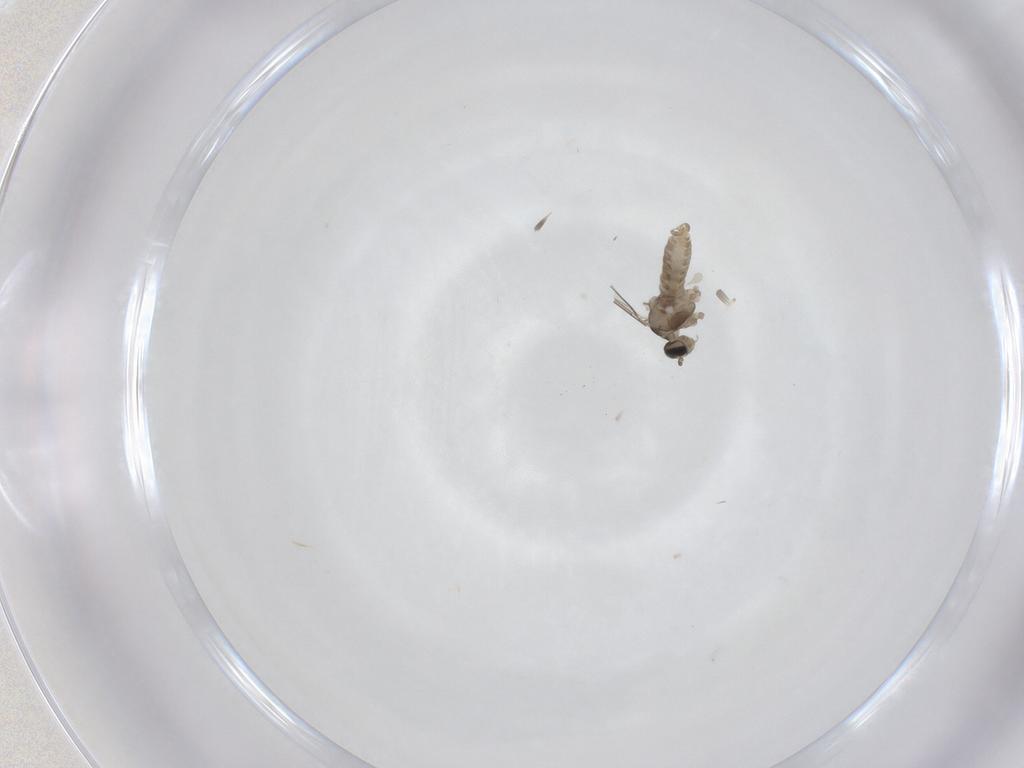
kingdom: Animalia
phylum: Arthropoda
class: Insecta
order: Diptera
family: Cecidomyiidae
